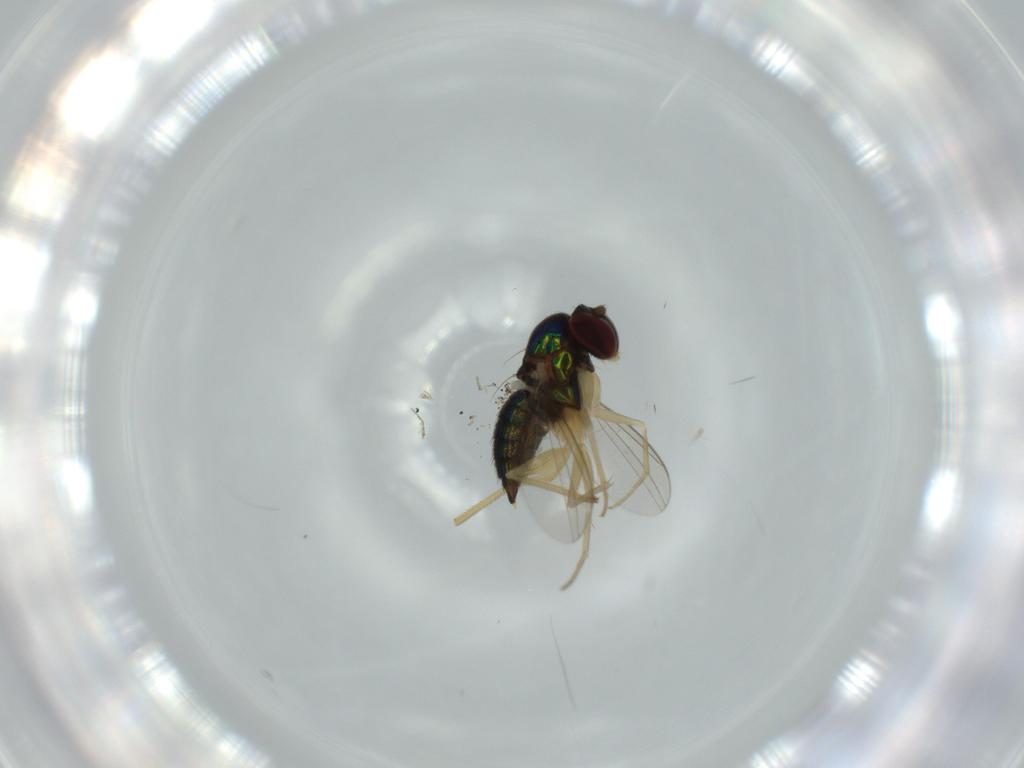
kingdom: Animalia
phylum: Arthropoda
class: Insecta
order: Diptera
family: Dolichopodidae
